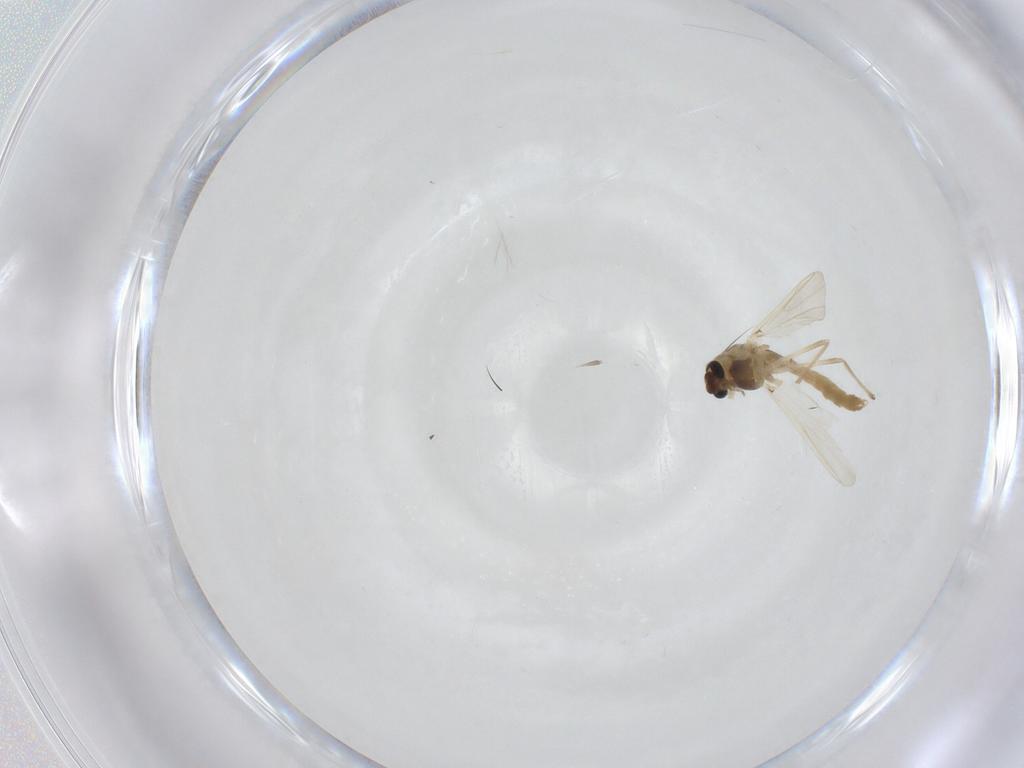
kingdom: Animalia
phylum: Arthropoda
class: Insecta
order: Diptera
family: Chironomidae
